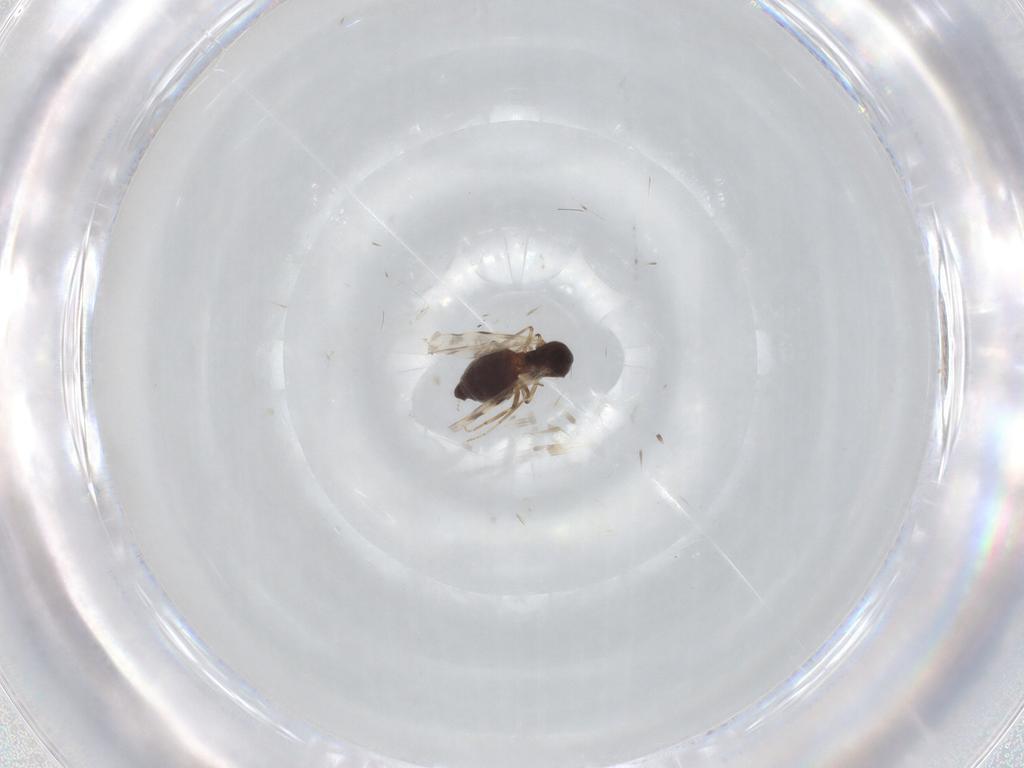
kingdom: Animalia
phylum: Arthropoda
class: Insecta
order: Diptera
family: Ceratopogonidae
